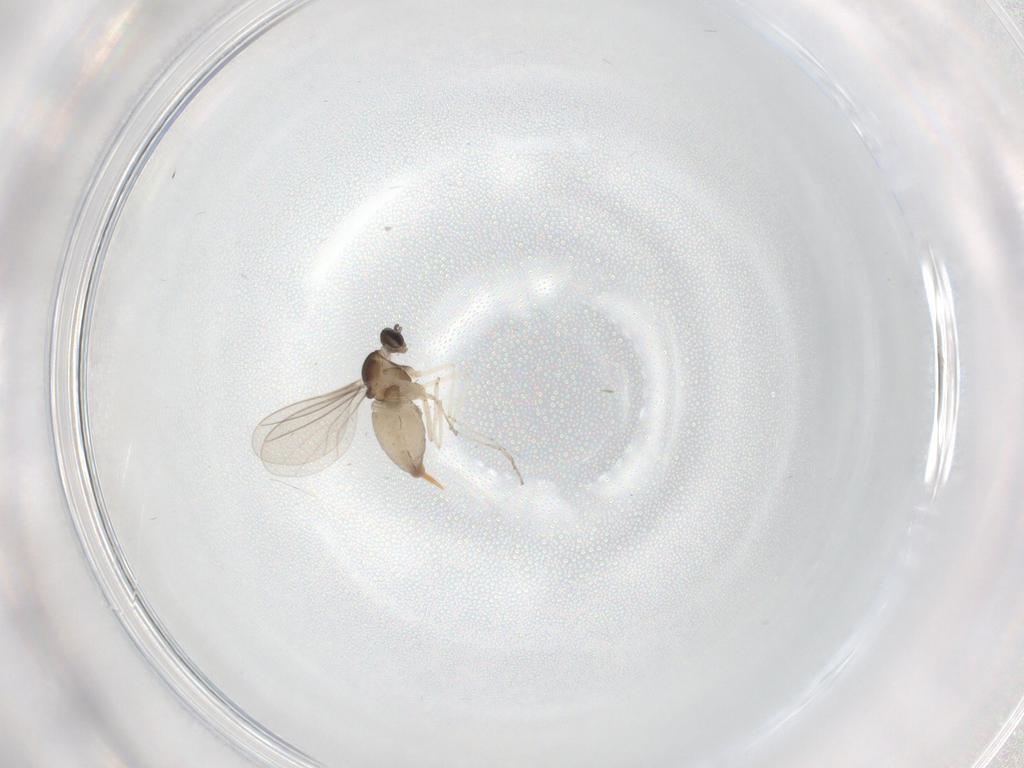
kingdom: Animalia
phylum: Arthropoda
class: Insecta
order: Diptera
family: Cecidomyiidae
